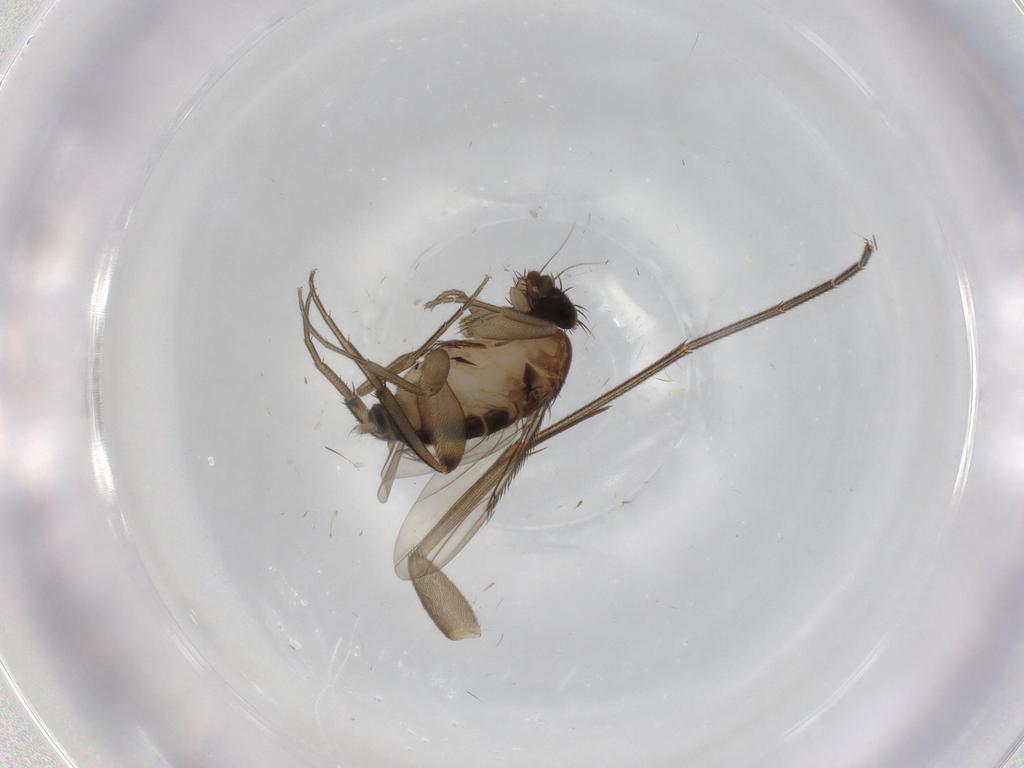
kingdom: Animalia
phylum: Arthropoda
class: Insecta
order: Diptera
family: Phoridae
